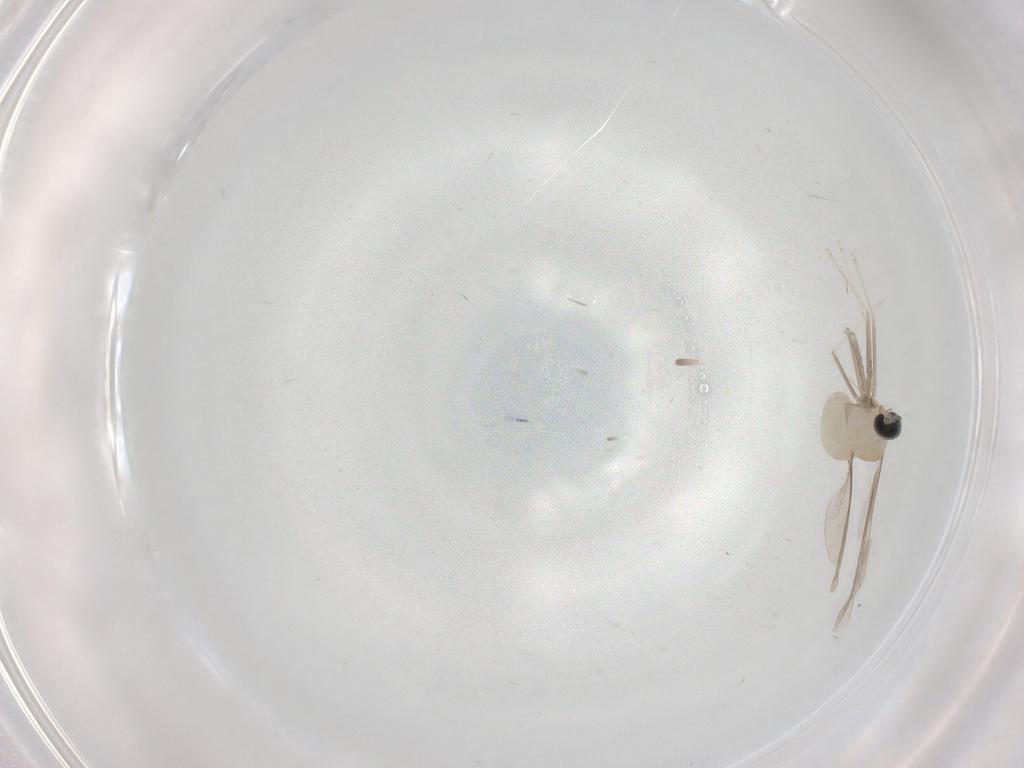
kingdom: Animalia
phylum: Arthropoda
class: Insecta
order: Diptera
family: Cecidomyiidae
